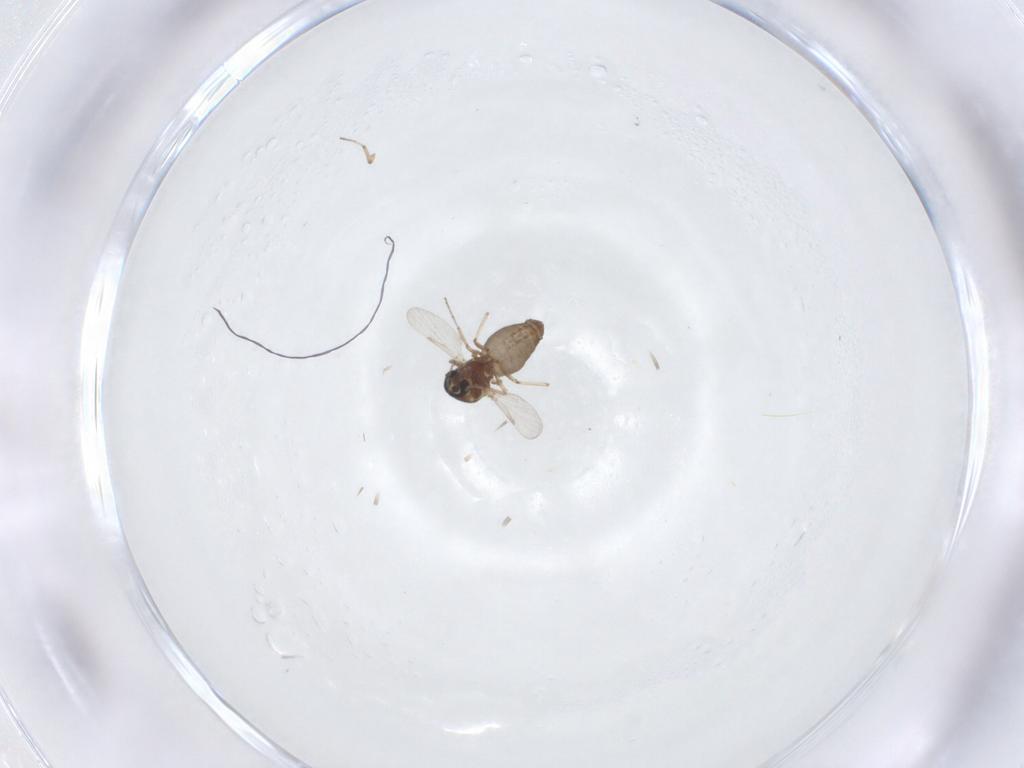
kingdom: Animalia
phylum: Arthropoda
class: Insecta
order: Diptera
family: Ceratopogonidae
